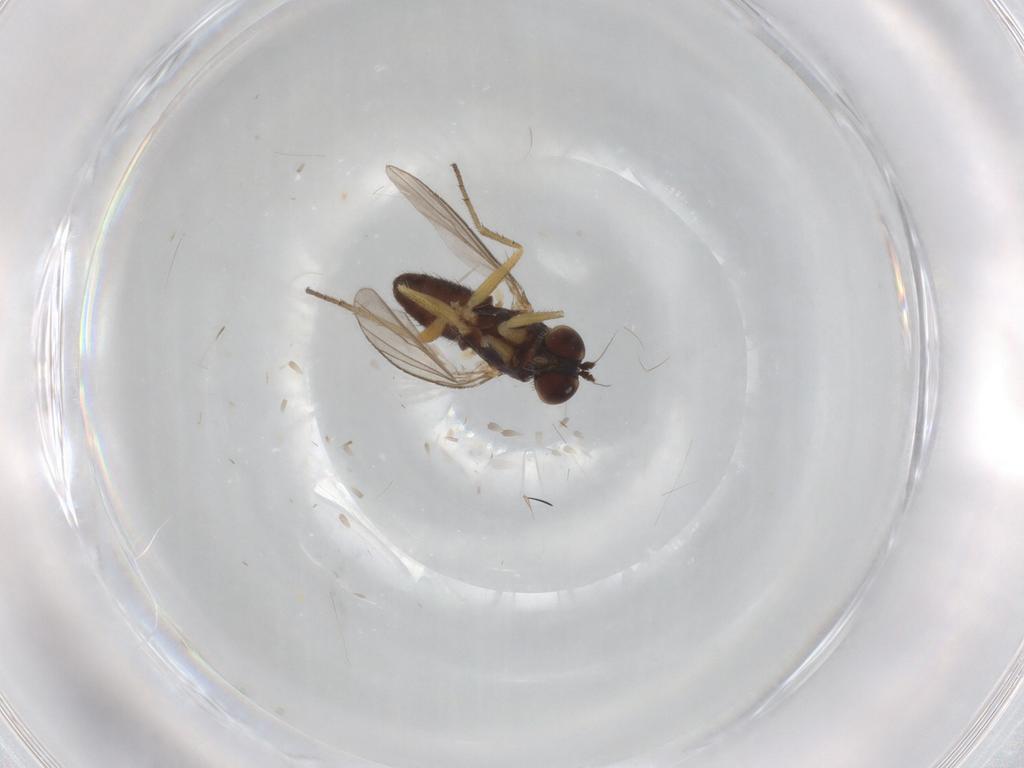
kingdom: Animalia
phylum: Arthropoda
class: Insecta
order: Diptera
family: Dolichopodidae
